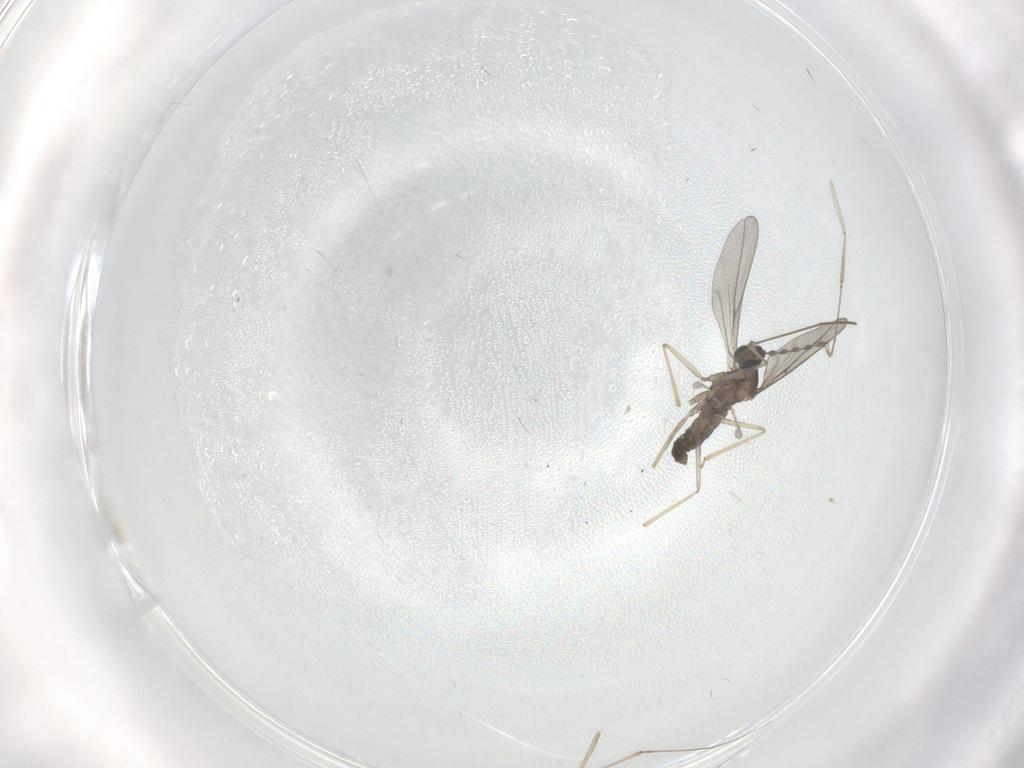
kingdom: Animalia
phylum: Arthropoda
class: Insecta
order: Diptera
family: Cecidomyiidae
